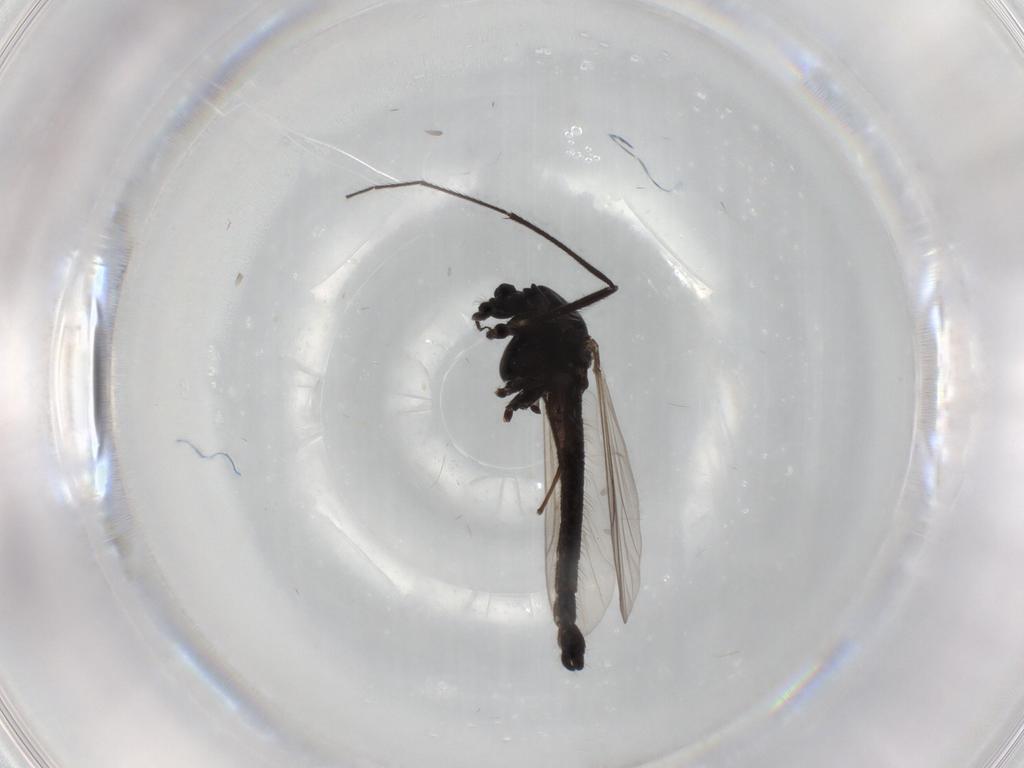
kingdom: Animalia
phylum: Arthropoda
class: Insecta
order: Diptera
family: Chironomidae
